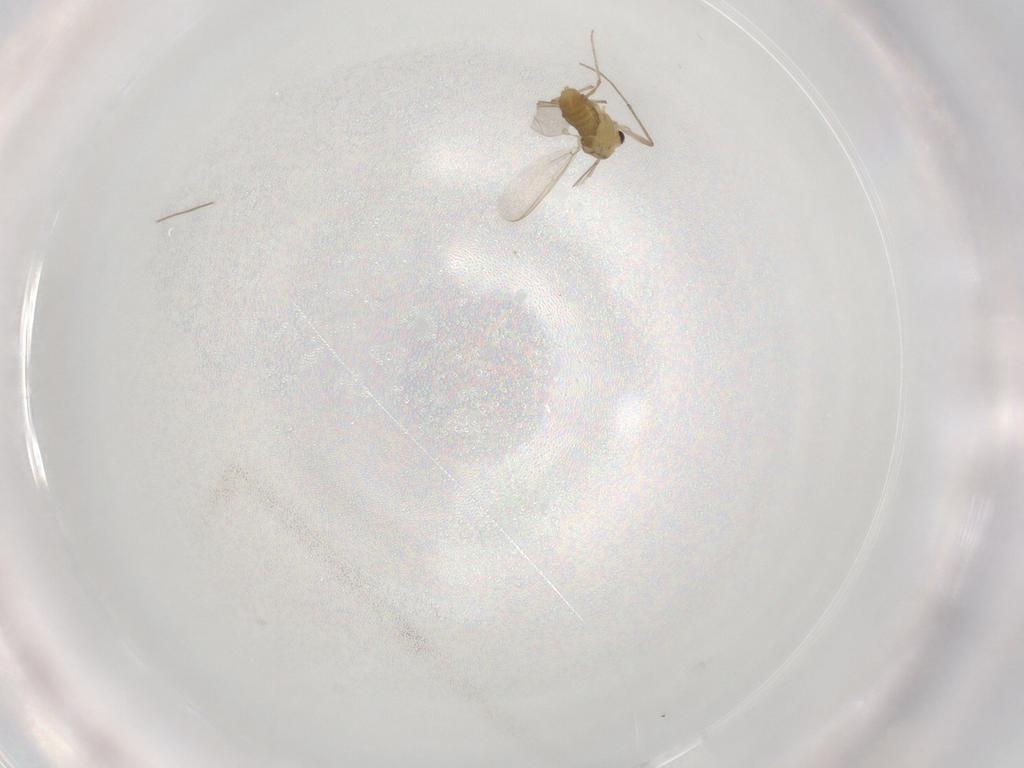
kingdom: Animalia
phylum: Arthropoda
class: Insecta
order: Diptera
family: Chironomidae
